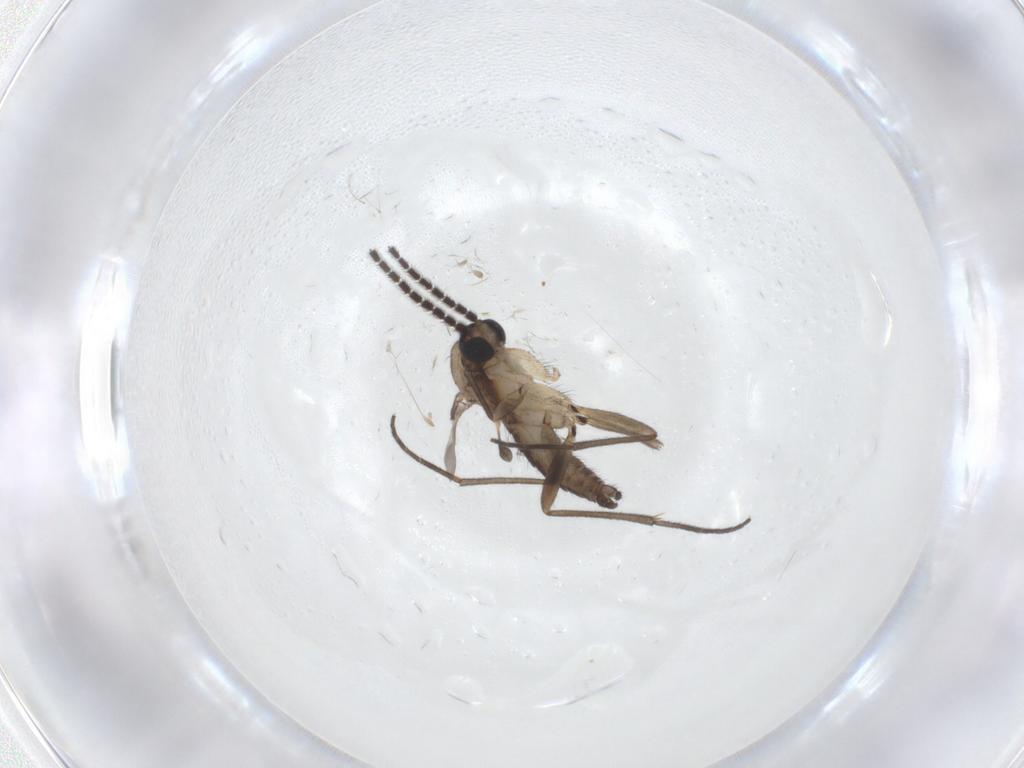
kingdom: Animalia
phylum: Arthropoda
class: Insecta
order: Diptera
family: Sciaridae
